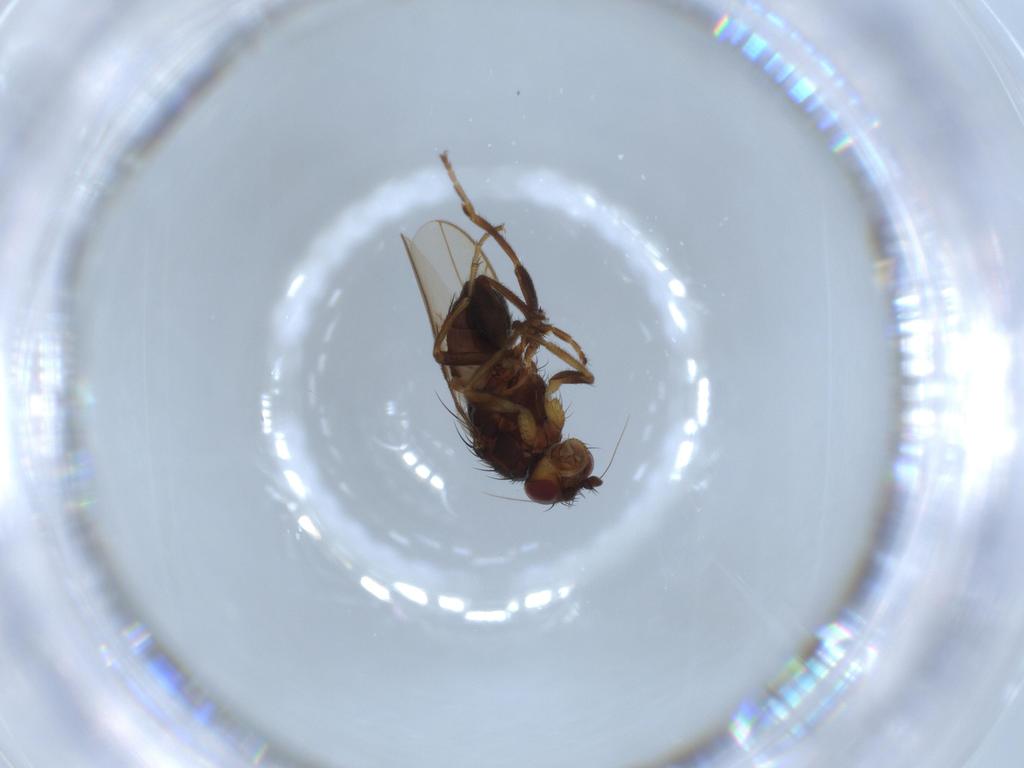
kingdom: Animalia
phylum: Arthropoda
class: Insecta
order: Diptera
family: Sphaeroceridae
